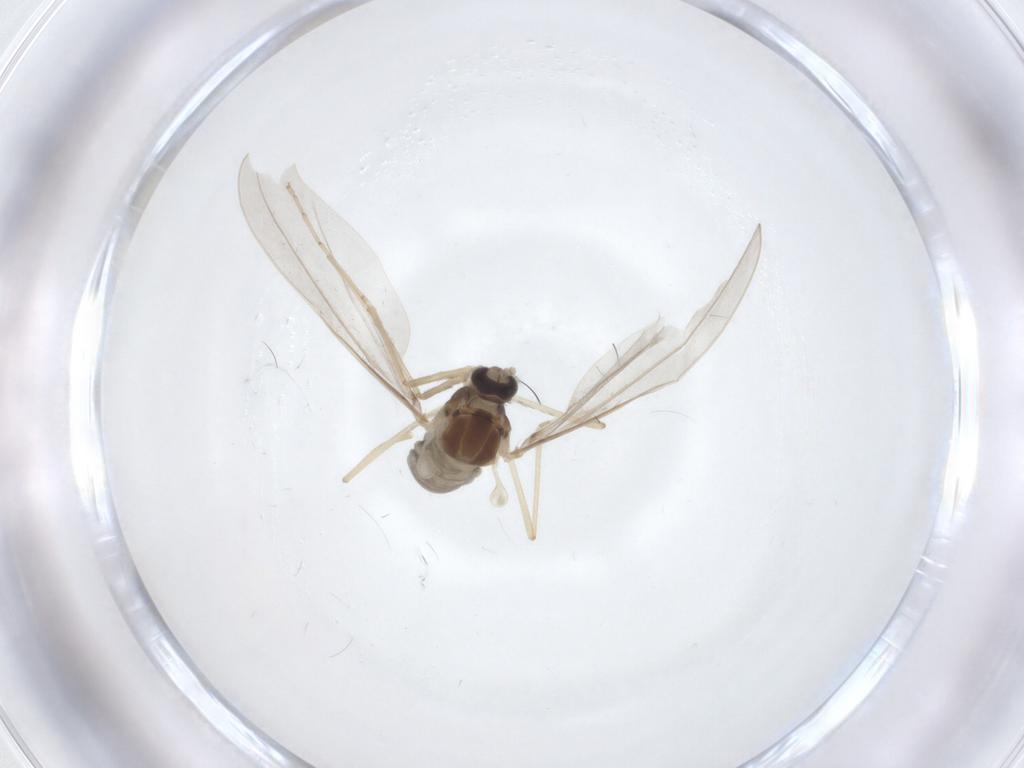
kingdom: Animalia
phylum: Arthropoda
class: Insecta
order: Diptera
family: Cecidomyiidae
